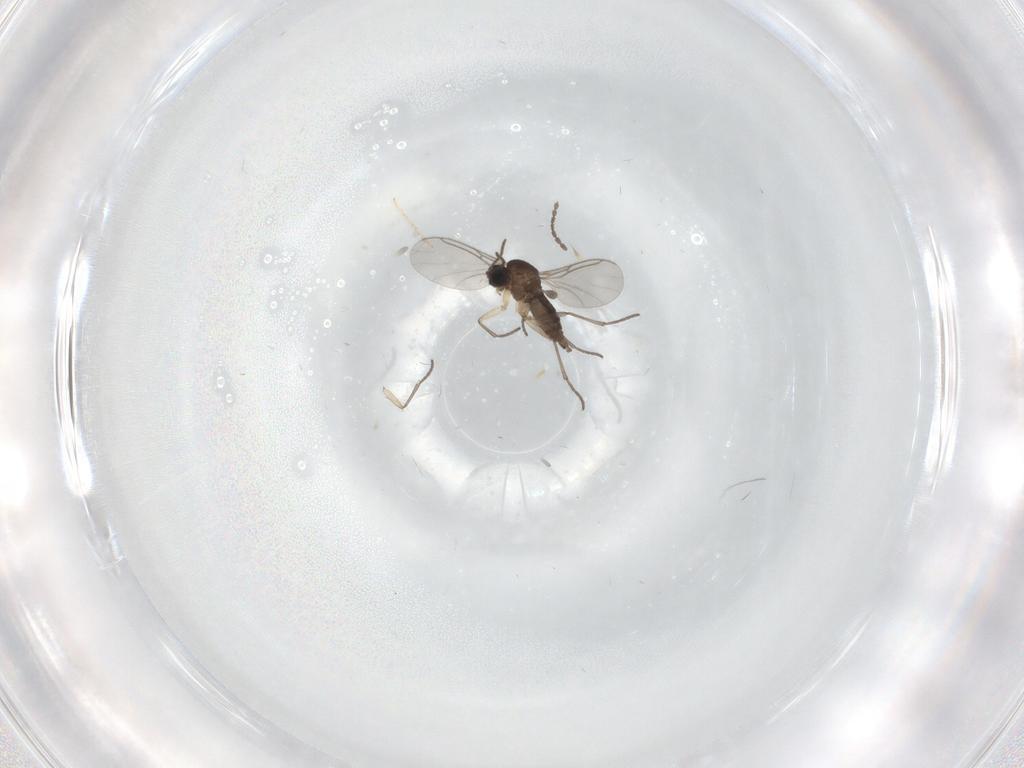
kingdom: Animalia
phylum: Arthropoda
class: Insecta
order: Diptera
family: Chironomidae
